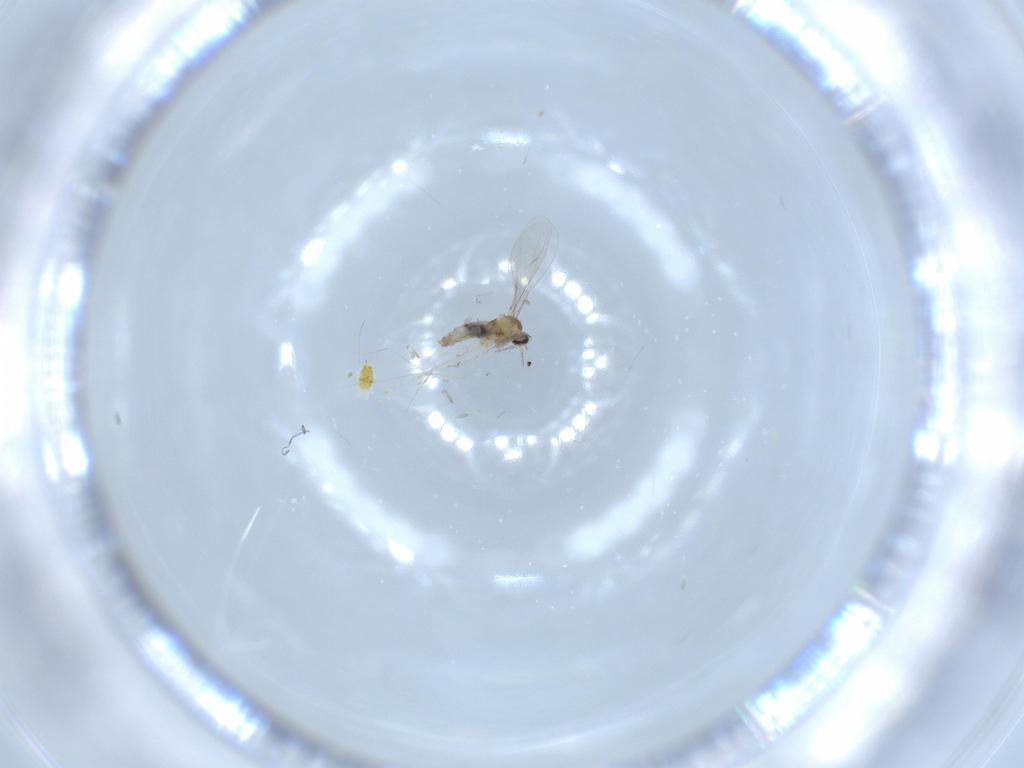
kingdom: Animalia
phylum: Arthropoda
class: Insecta
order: Diptera
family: Cecidomyiidae
